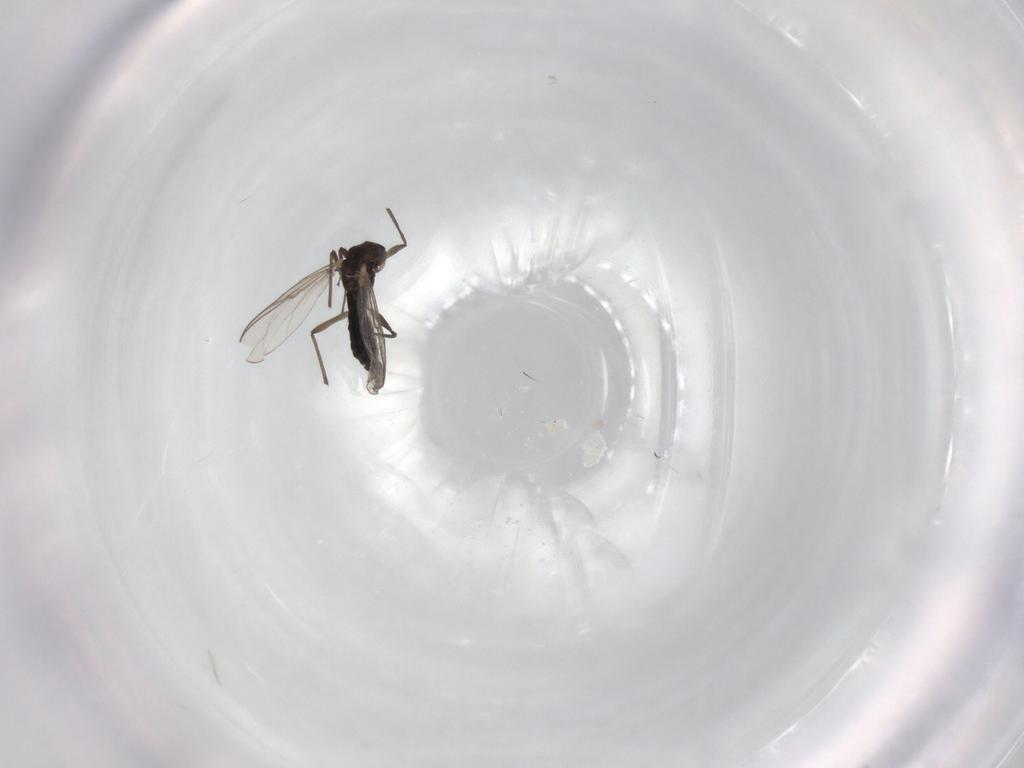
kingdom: Animalia
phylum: Arthropoda
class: Insecta
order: Diptera
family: Chironomidae
